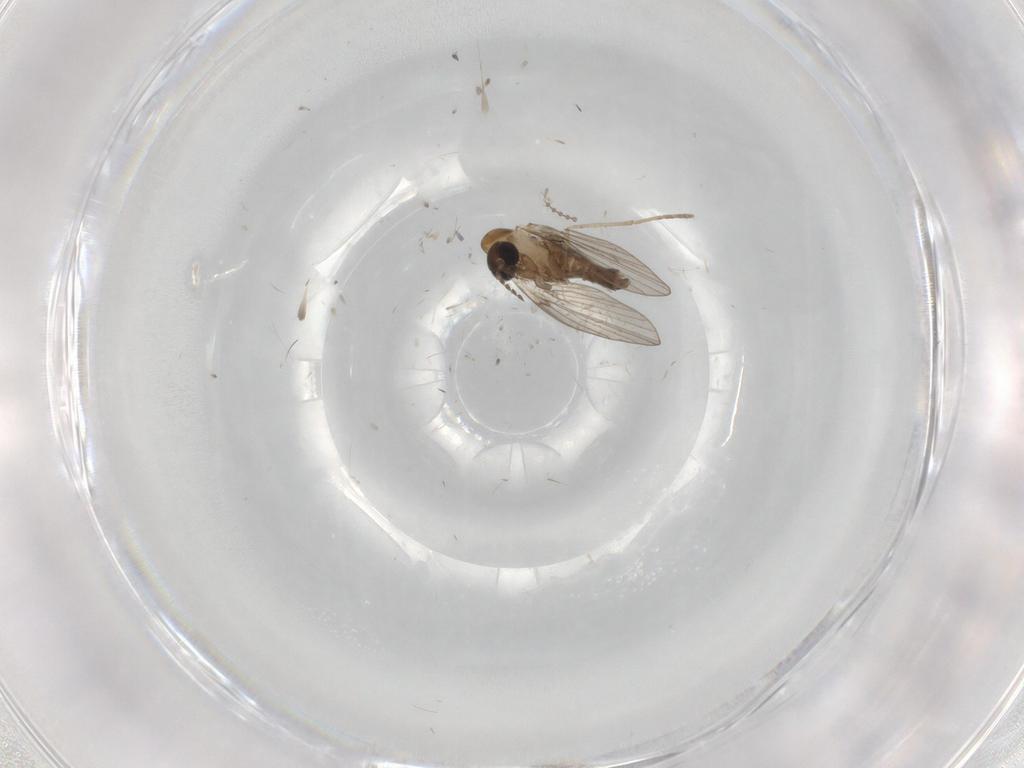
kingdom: Animalia
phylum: Arthropoda
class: Insecta
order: Diptera
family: Psychodidae
